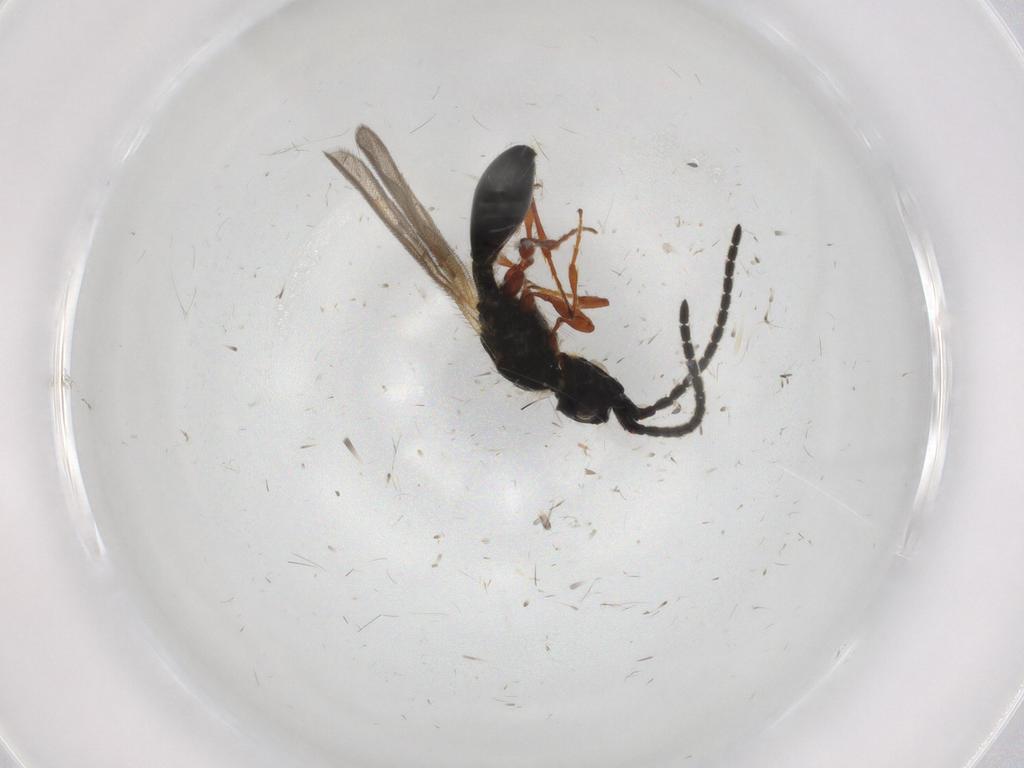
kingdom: Animalia
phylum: Arthropoda
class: Insecta
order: Hymenoptera
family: Diapriidae
